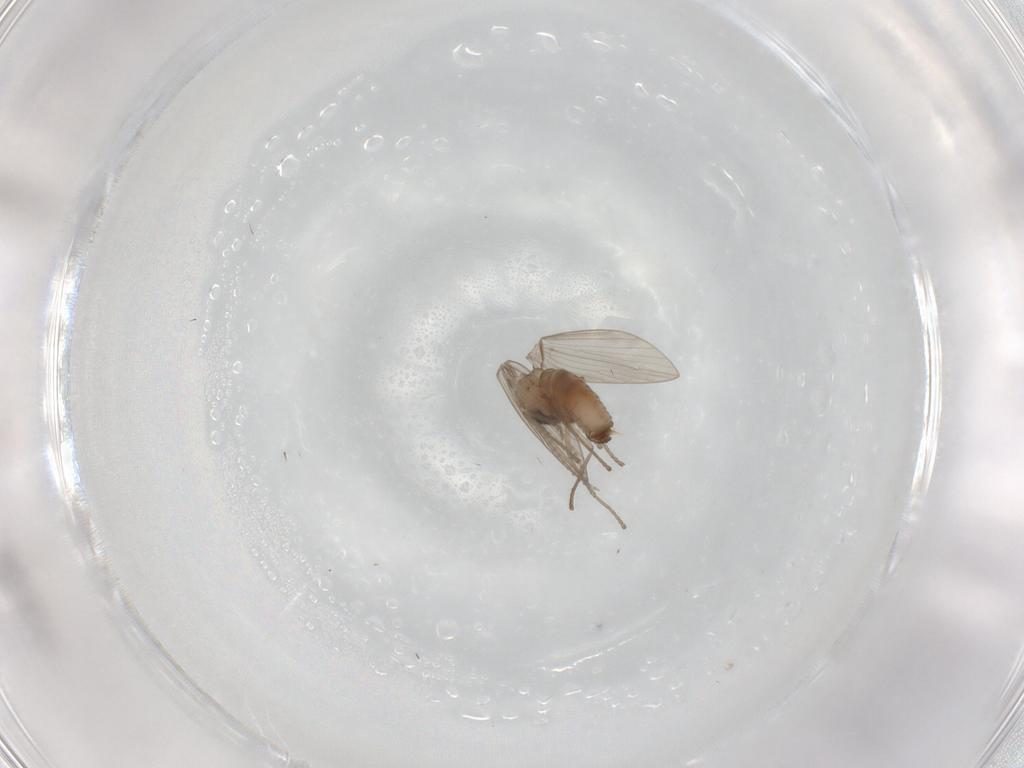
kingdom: Animalia
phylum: Arthropoda
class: Insecta
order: Diptera
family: Psychodidae
